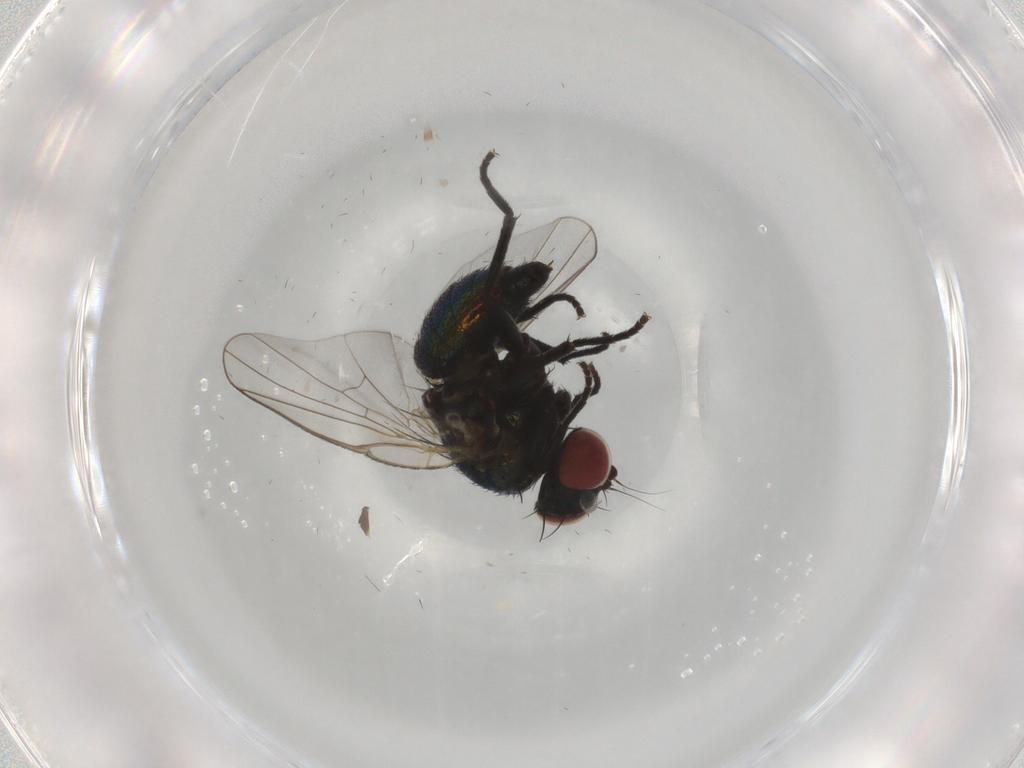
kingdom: Animalia
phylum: Arthropoda
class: Insecta
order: Diptera
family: Agromyzidae
